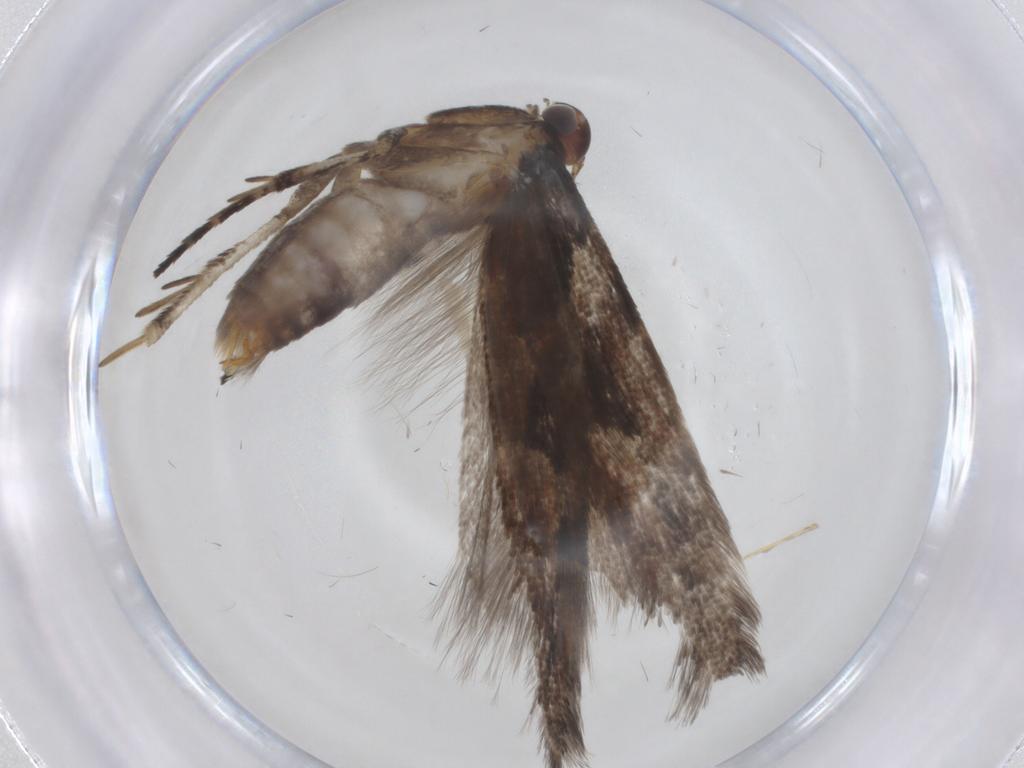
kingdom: Animalia
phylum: Arthropoda
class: Insecta
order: Lepidoptera
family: Gelechiidae
